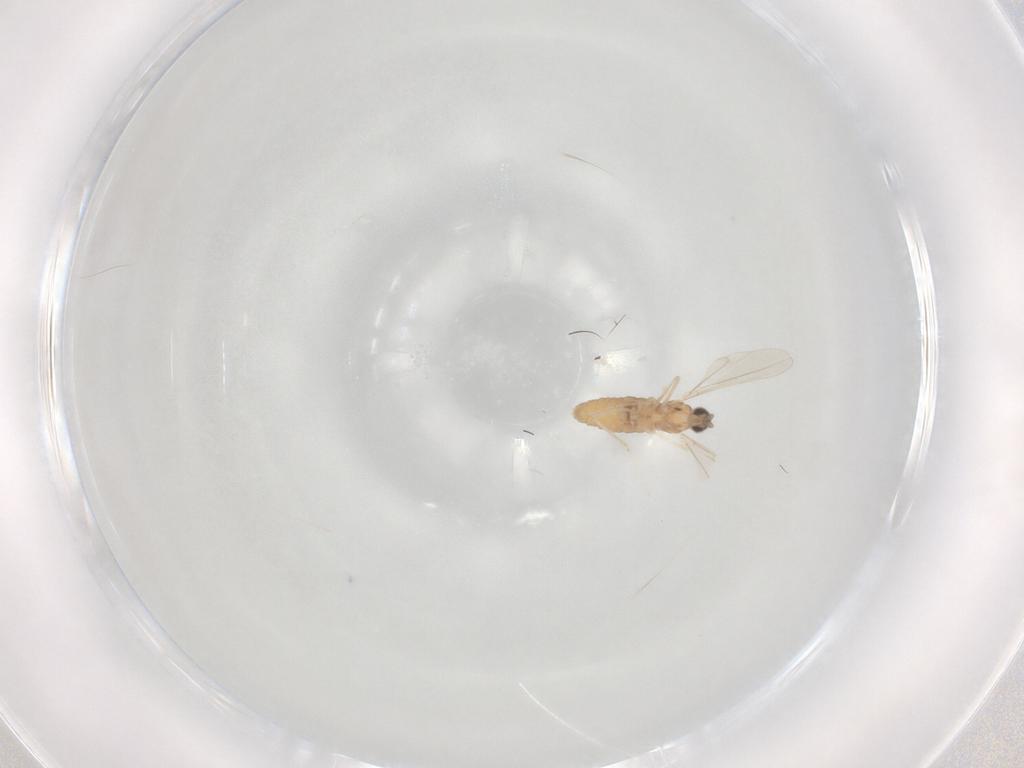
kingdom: Animalia
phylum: Arthropoda
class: Insecta
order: Diptera
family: Cecidomyiidae
